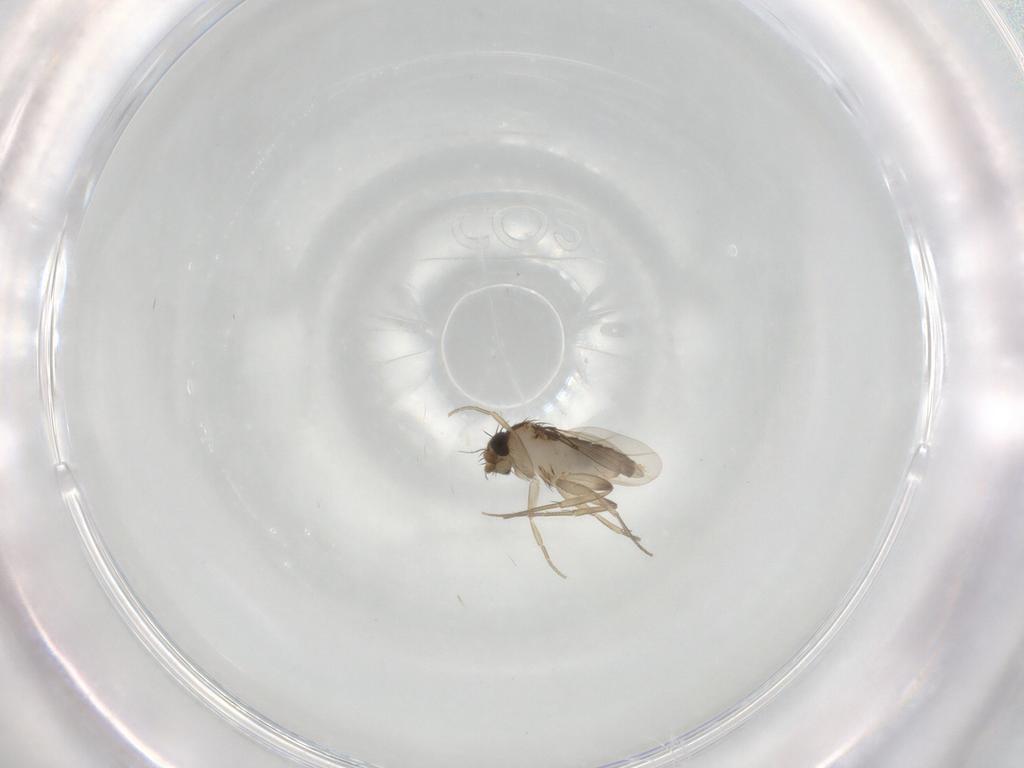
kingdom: Animalia
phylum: Arthropoda
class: Insecta
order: Diptera
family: Phoridae
